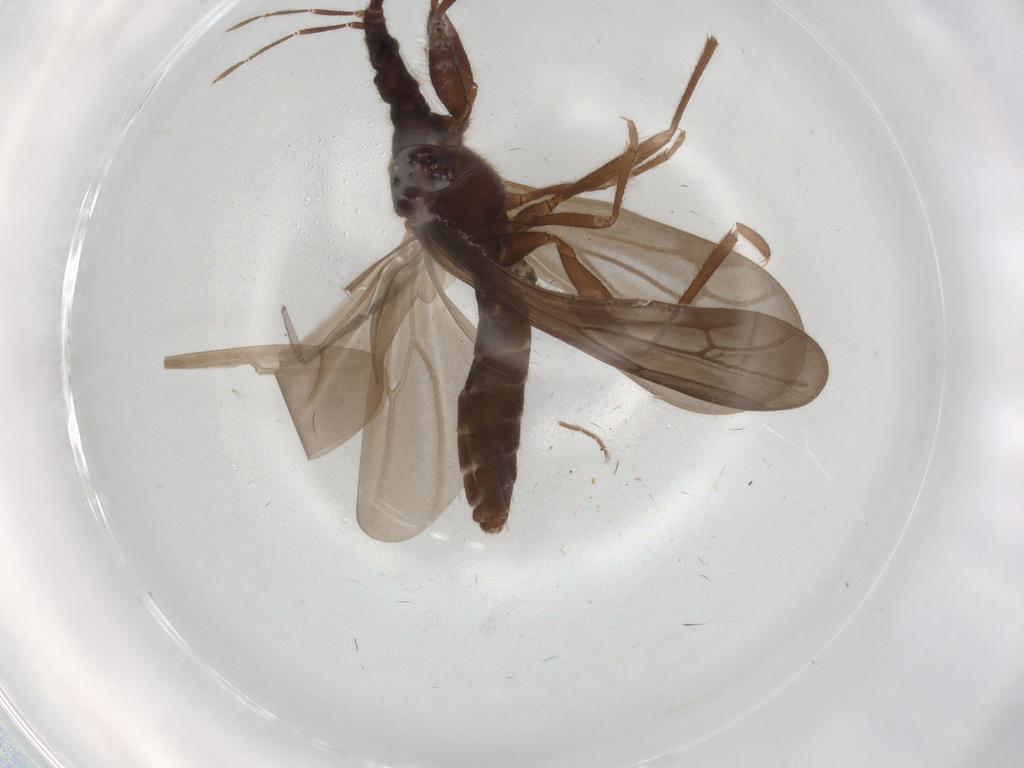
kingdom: Animalia
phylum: Arthropoda
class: Insecta
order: Hemiptera
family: Enicocephalidae
